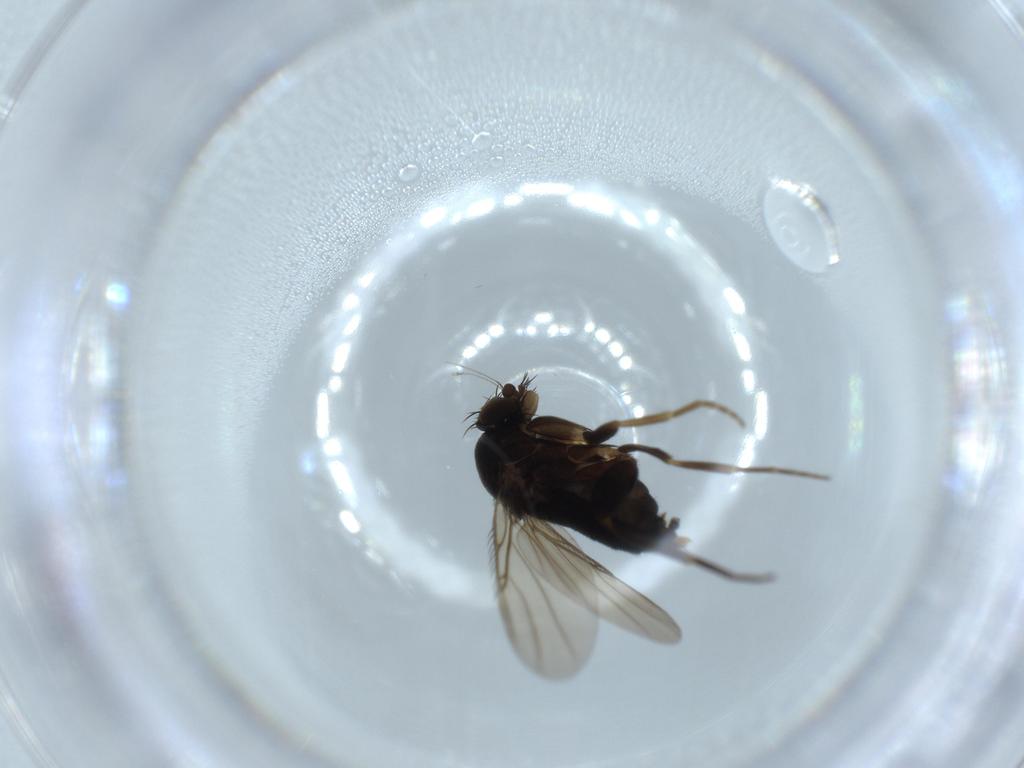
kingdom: Animalia
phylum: Arthropoda
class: Insecta
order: Diptera
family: Phoridae
